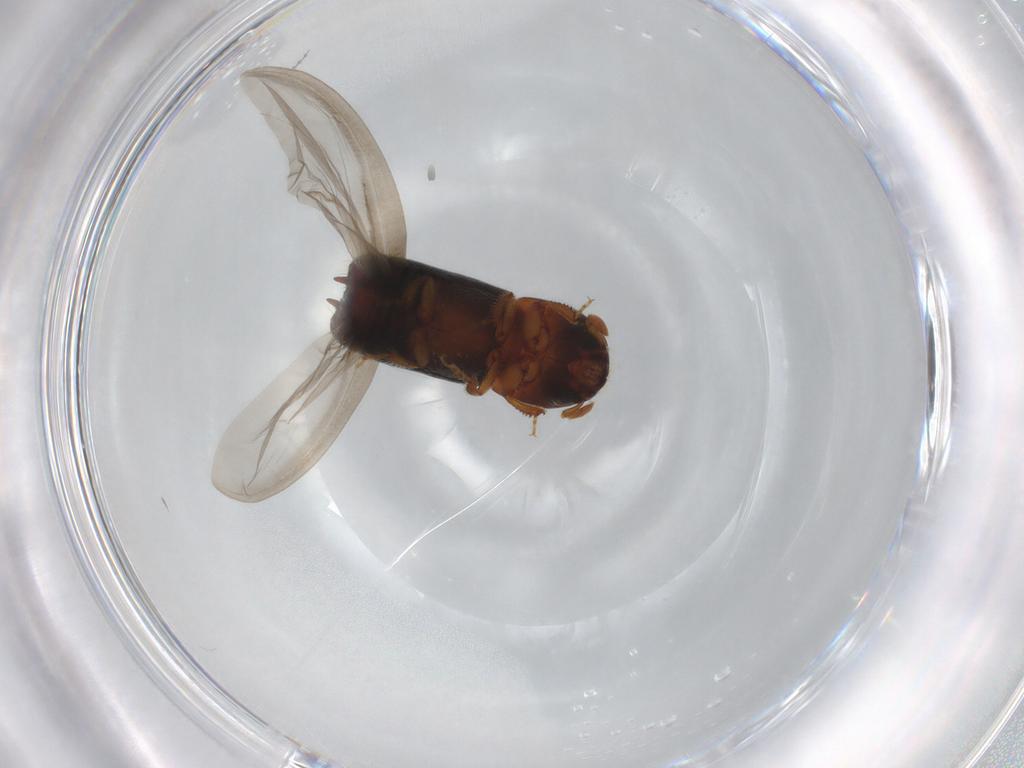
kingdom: Animalia
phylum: Arthropoda
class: Insecta
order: Coleoptera
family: Curculionidae
